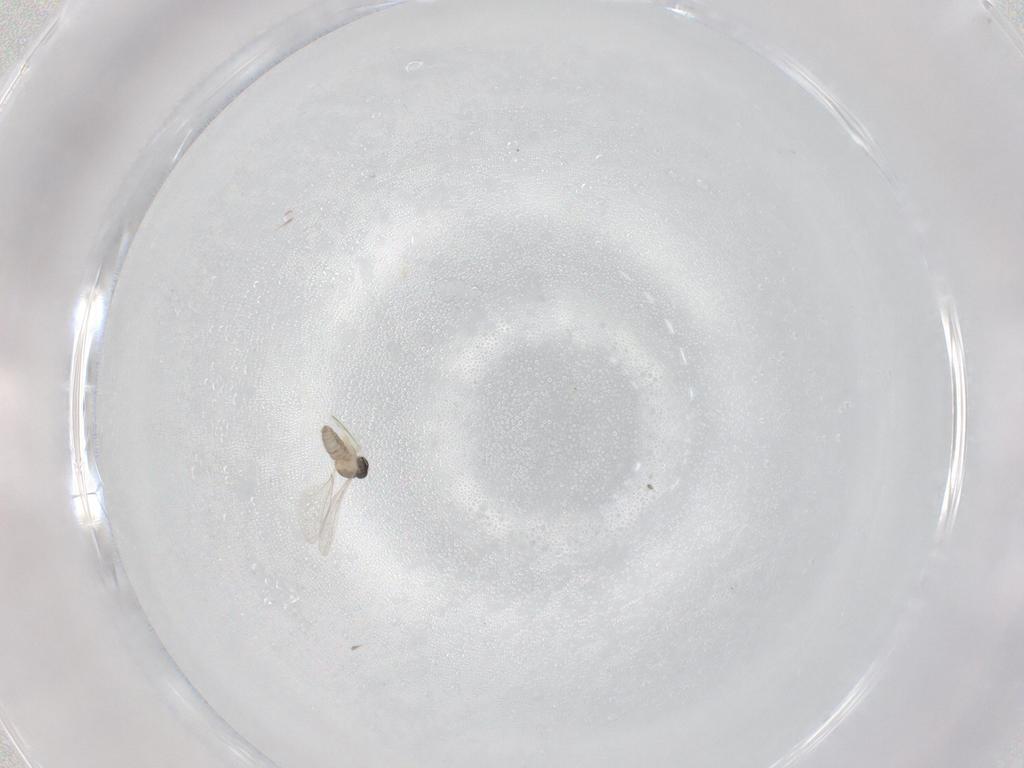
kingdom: Animalia
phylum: Arthropoda
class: Insecta
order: Diptera
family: Cecidomyiidae
